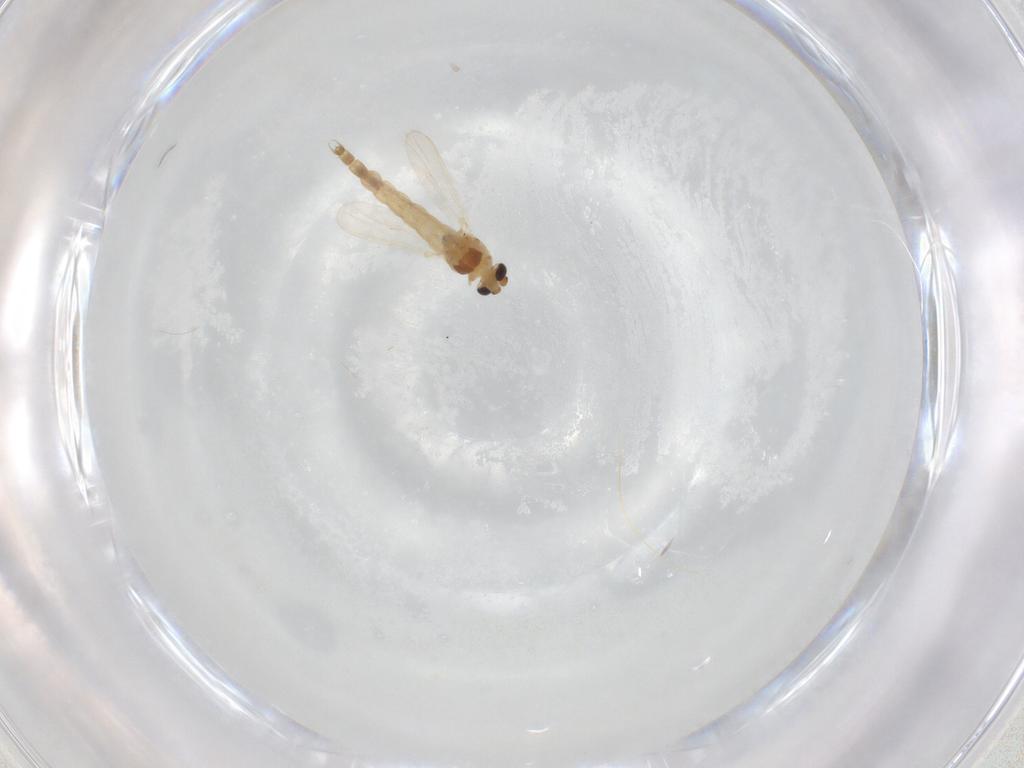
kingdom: Animalia
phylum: Arthropoda
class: Insecta
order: Diptera
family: Chironomidae
